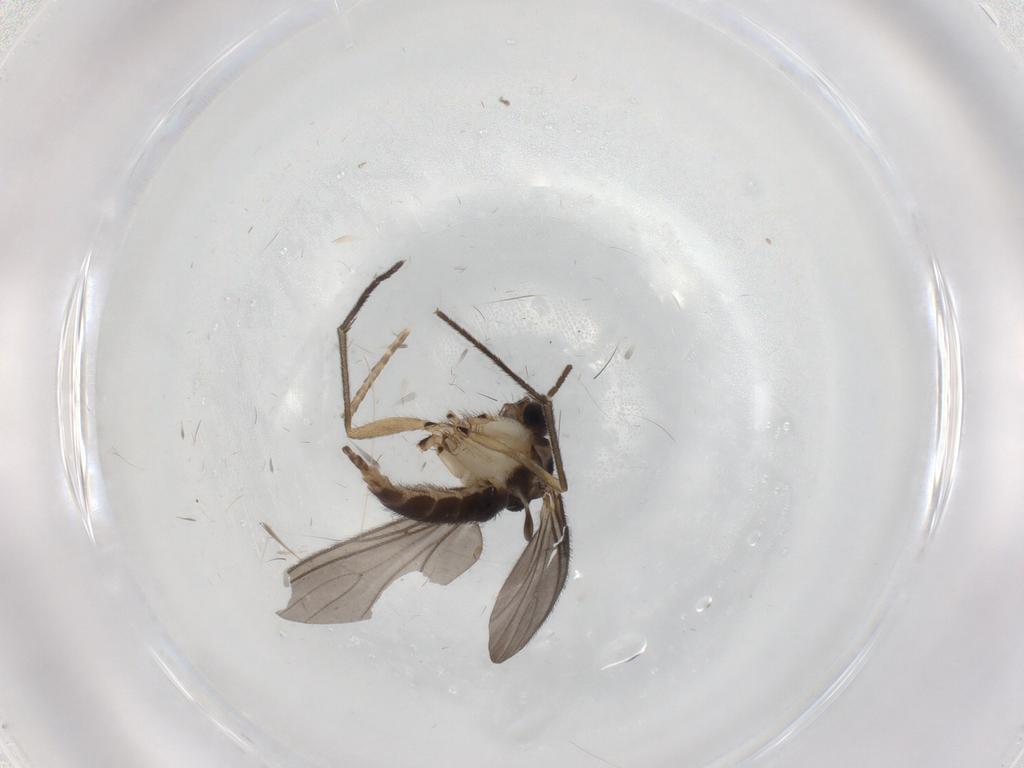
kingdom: Animalia
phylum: Arthropoda
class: Insecta
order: Diptera
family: Sciaridae
